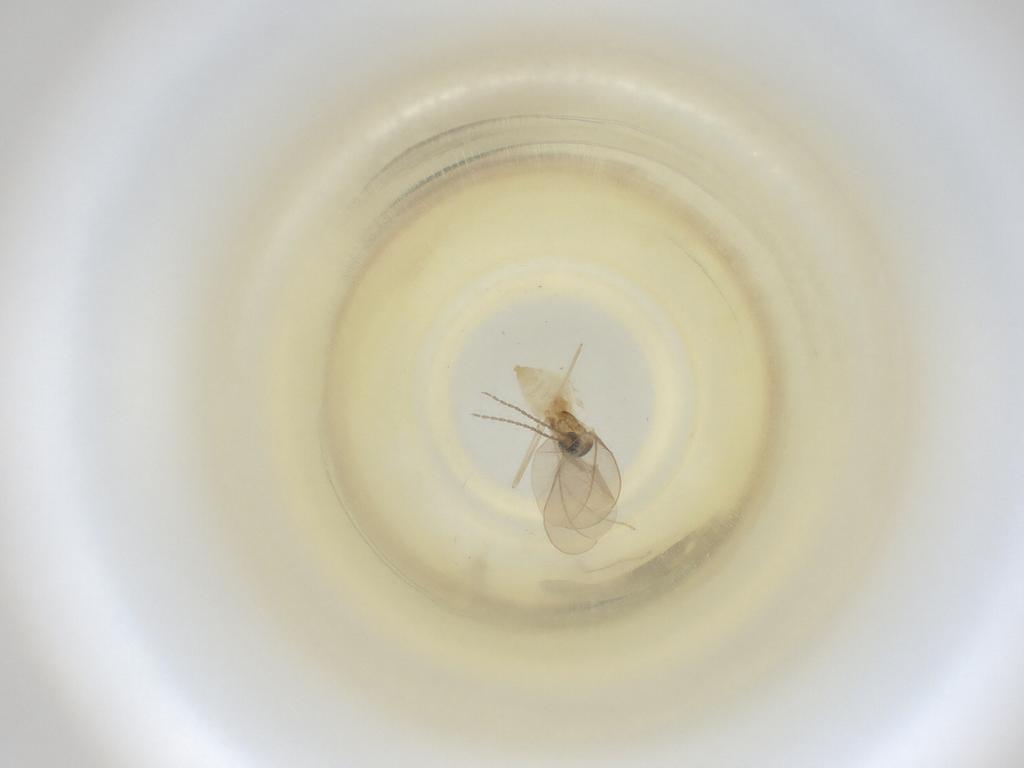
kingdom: Animalia
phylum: Arthropoda
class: Insecta
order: Diptera
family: Cecidomyiidae
